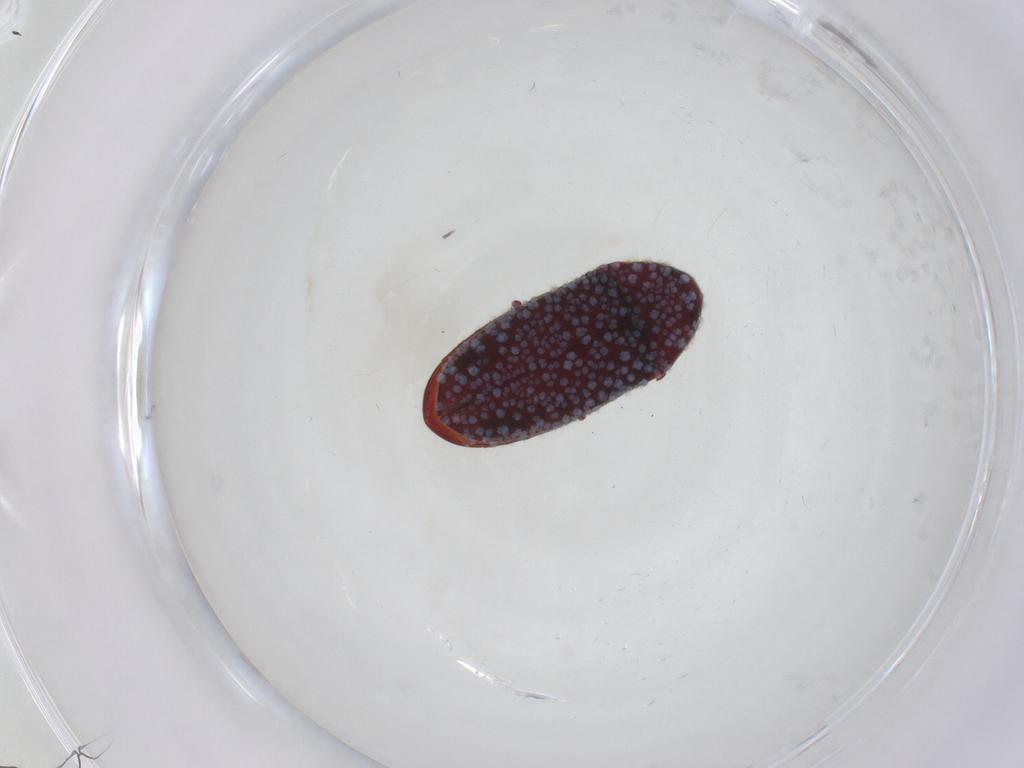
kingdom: Animalia
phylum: Arthropoda
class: Insecta
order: Coleoptera
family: Throscidae
